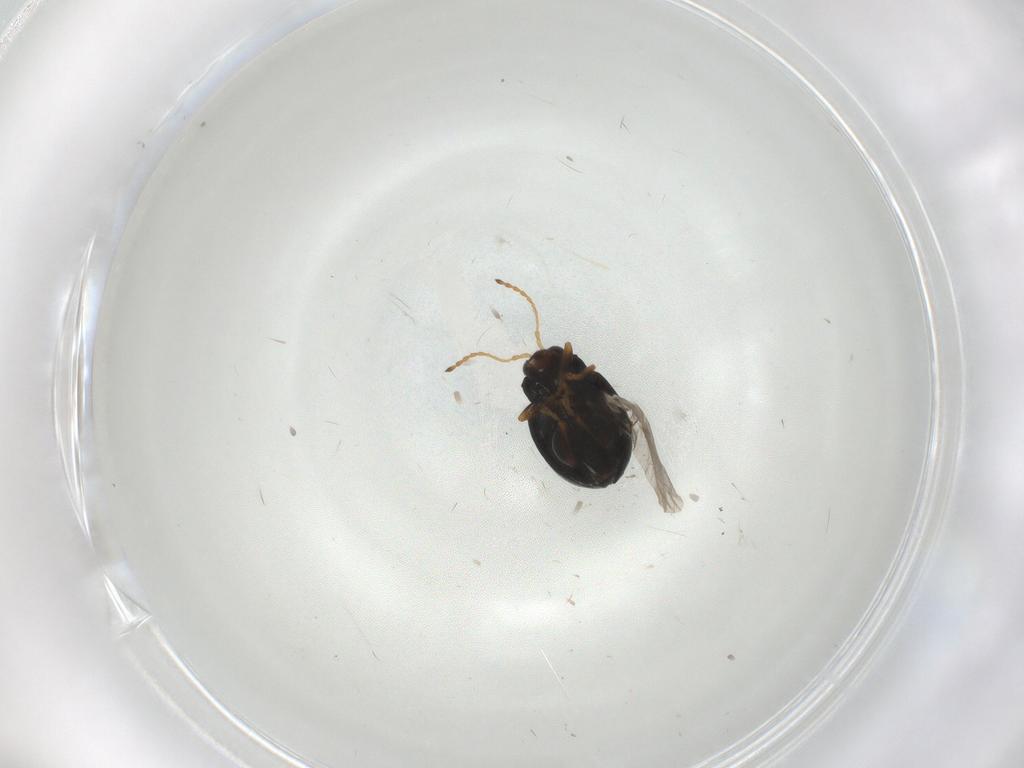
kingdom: Animalia
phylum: Arthropoda
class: Insecta
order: Coleoptera
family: Chrysomelidae
